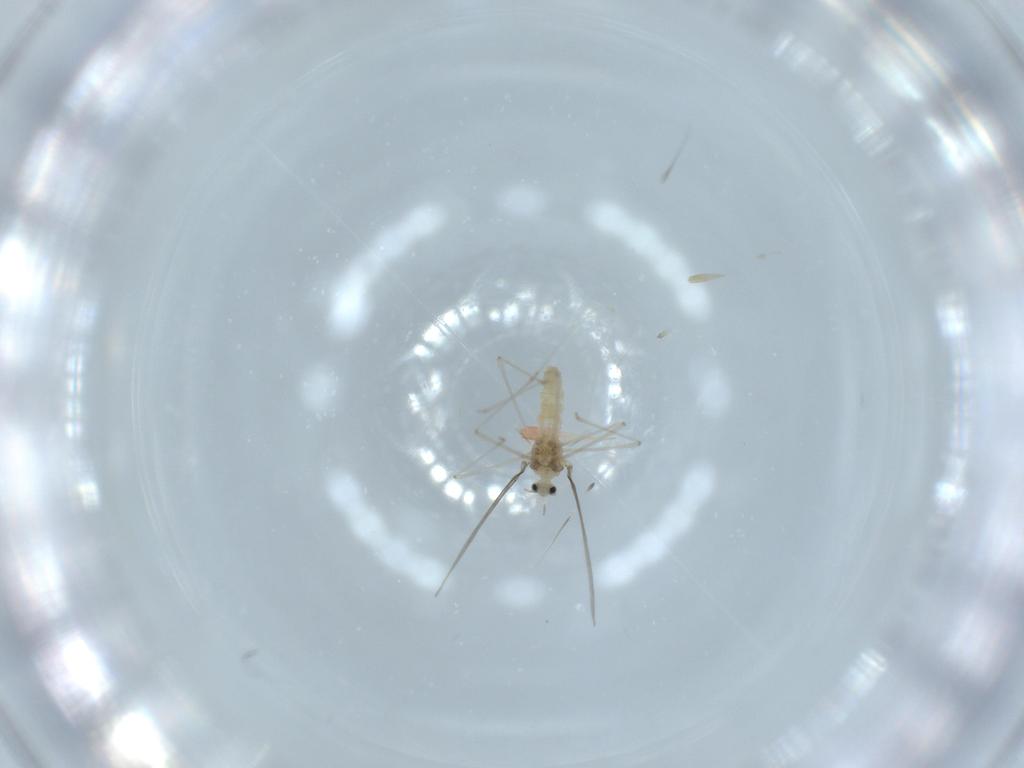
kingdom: Animalia
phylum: Arthropoda
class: Insecta
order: Diptera
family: Cecidomyiidae
